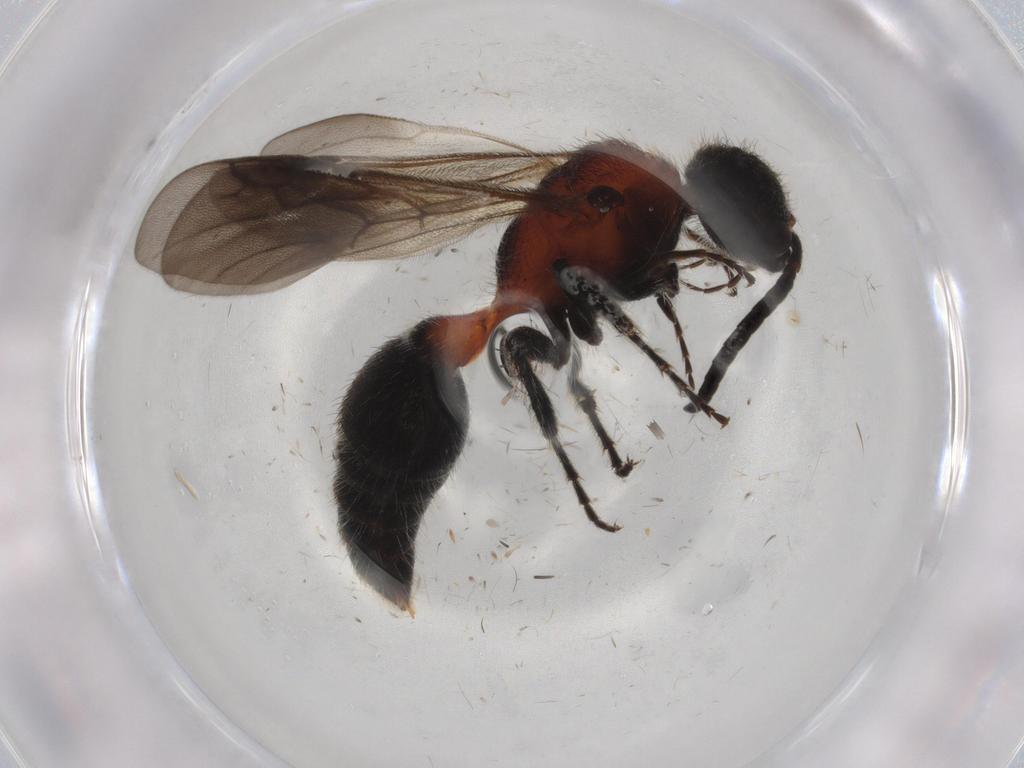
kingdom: Animalia
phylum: Arthropoda
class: Insecta
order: Hymenoptera
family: Mutillidae
